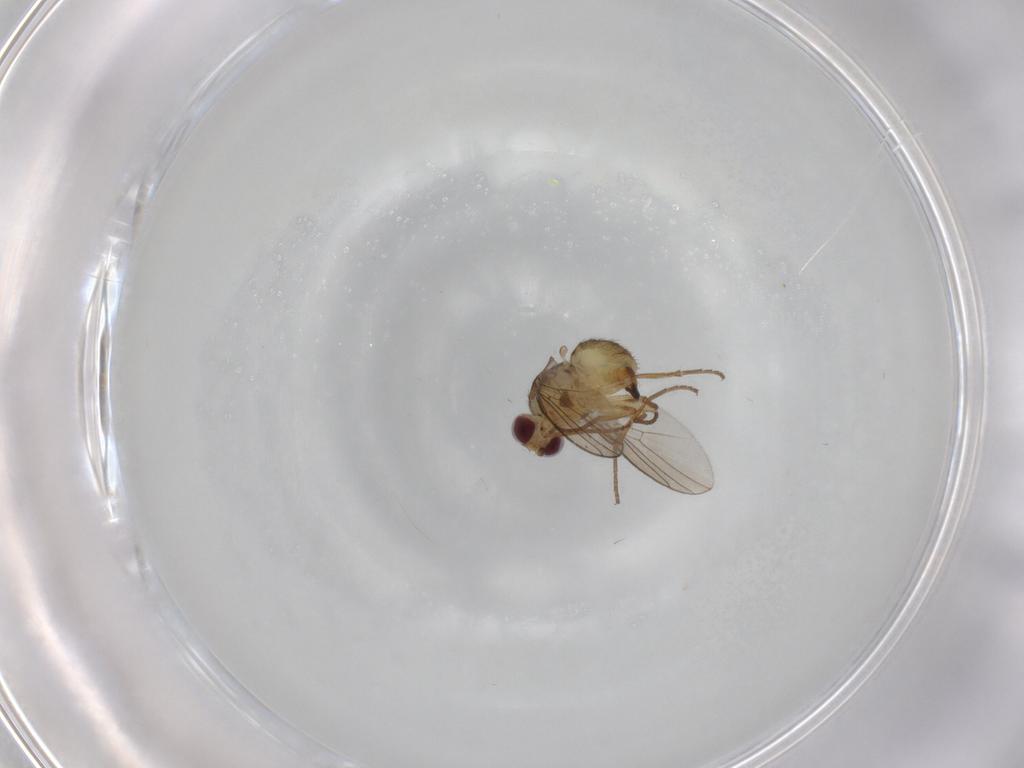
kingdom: Animalia
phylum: Arthropoda
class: Insecta
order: Diptera
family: Agromyzidae
